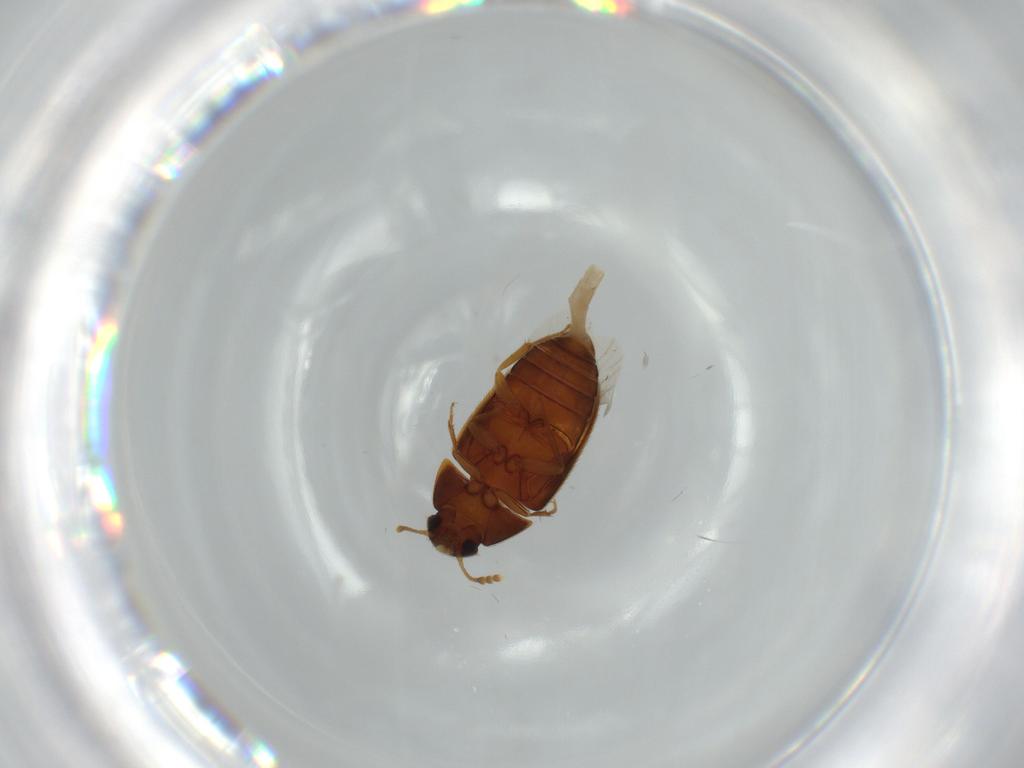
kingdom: Animalia
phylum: Arthropoda
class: Insecta
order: Coleoptera
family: Mycetophagidae
